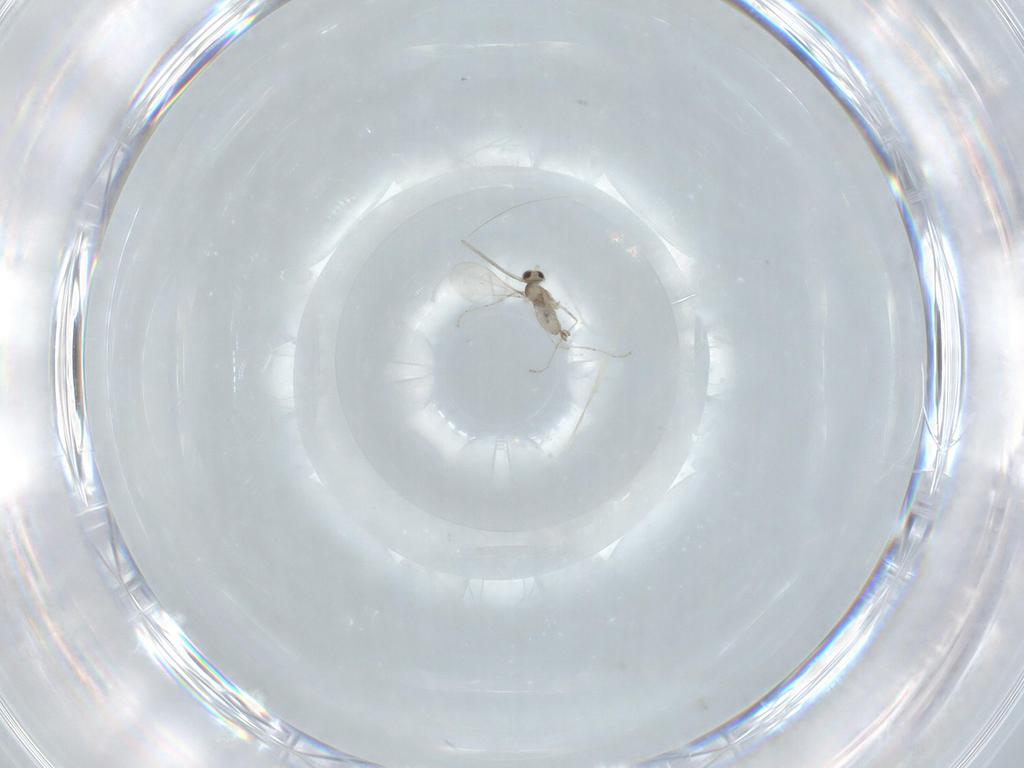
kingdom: Animalia
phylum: Arthropoda
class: Insecta
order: Diptera
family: Cecidomyiidae
